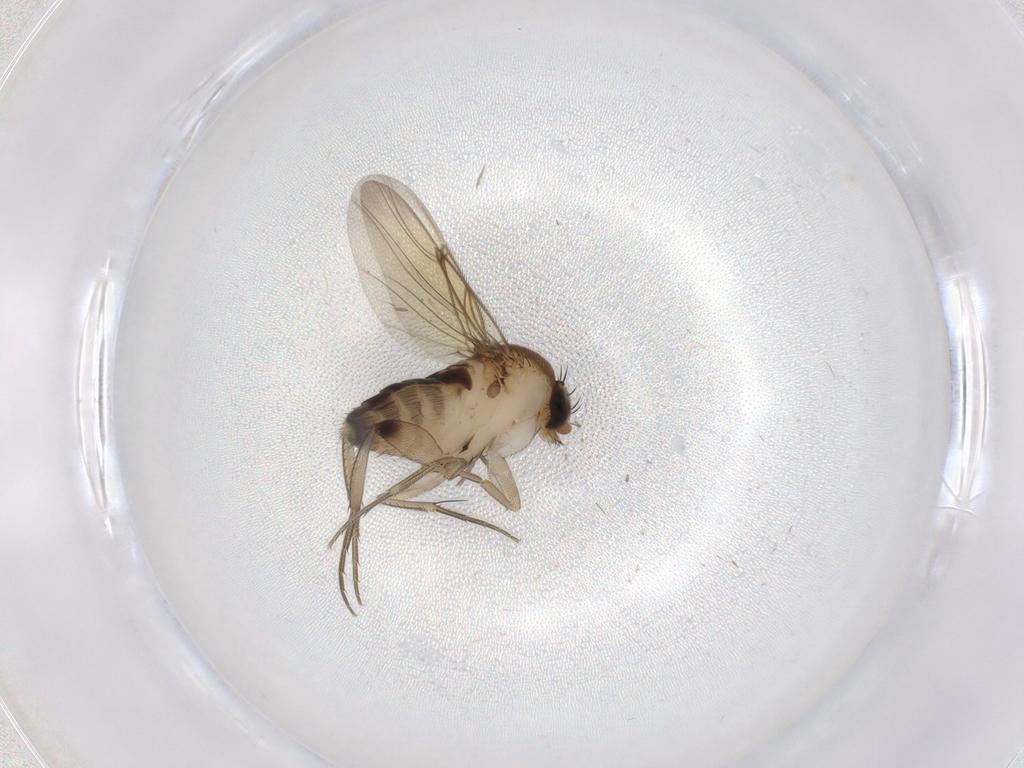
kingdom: Animalia
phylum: Arthropoda
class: Insecta
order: Diptera
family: Phoridae
